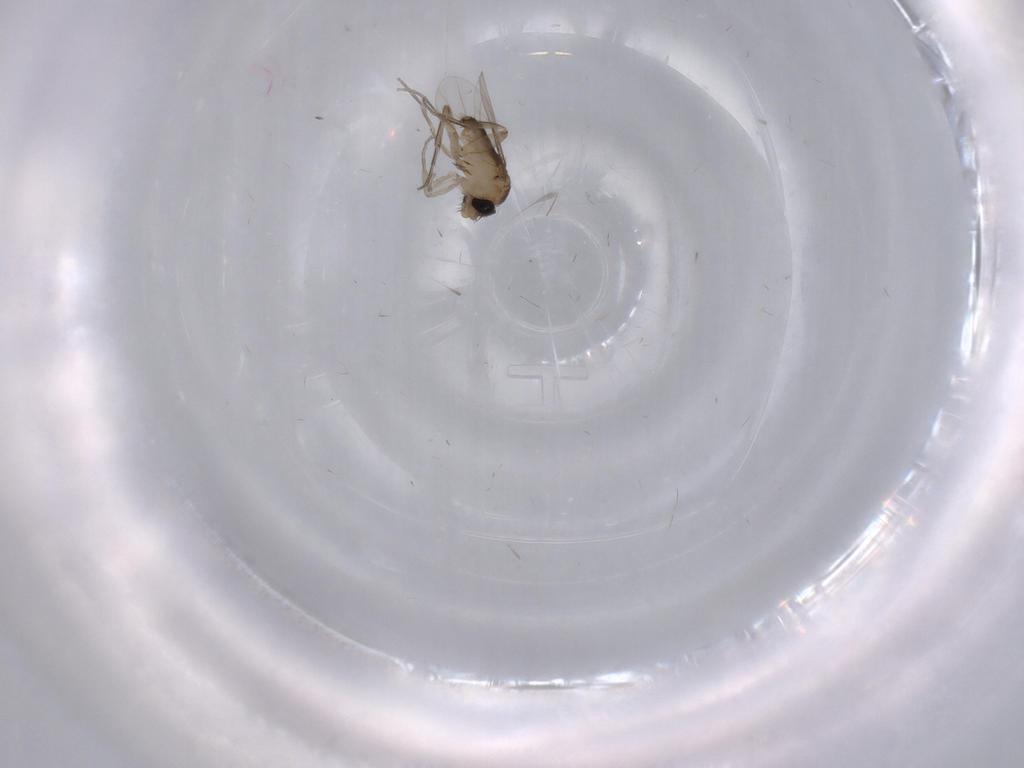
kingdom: Animalia
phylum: Arthropoda
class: Insecta
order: Diptera
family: Phoridae
